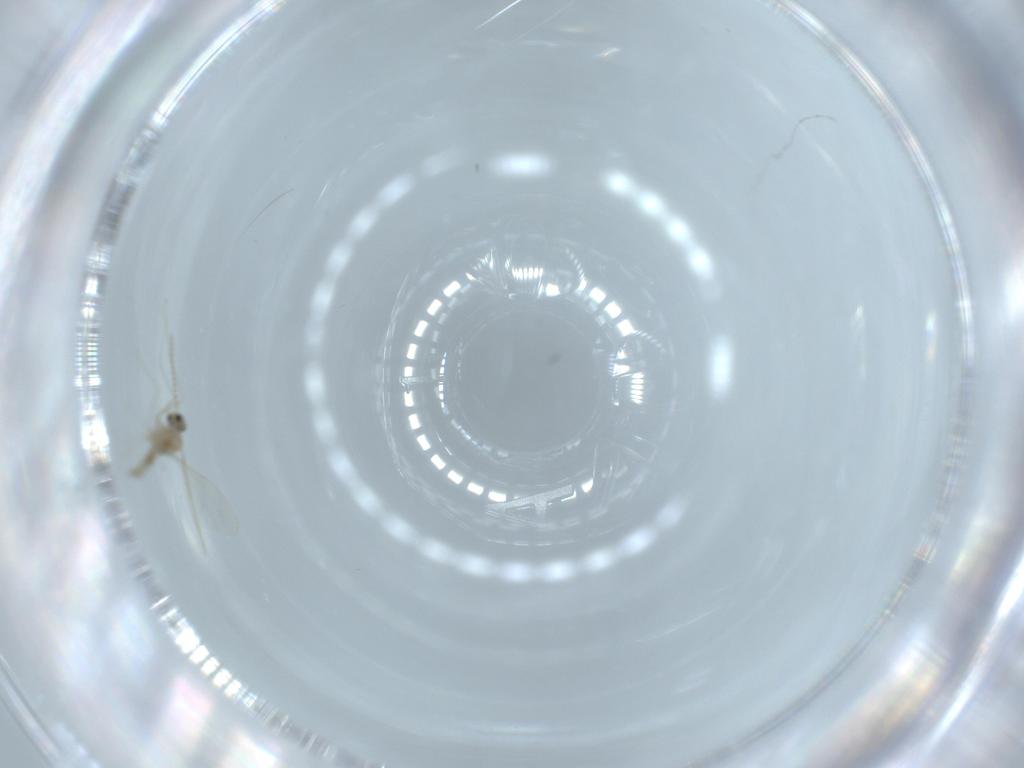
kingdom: Animalia
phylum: Arthropoda
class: Insecta
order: Diptera
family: Cecidomyiidae
